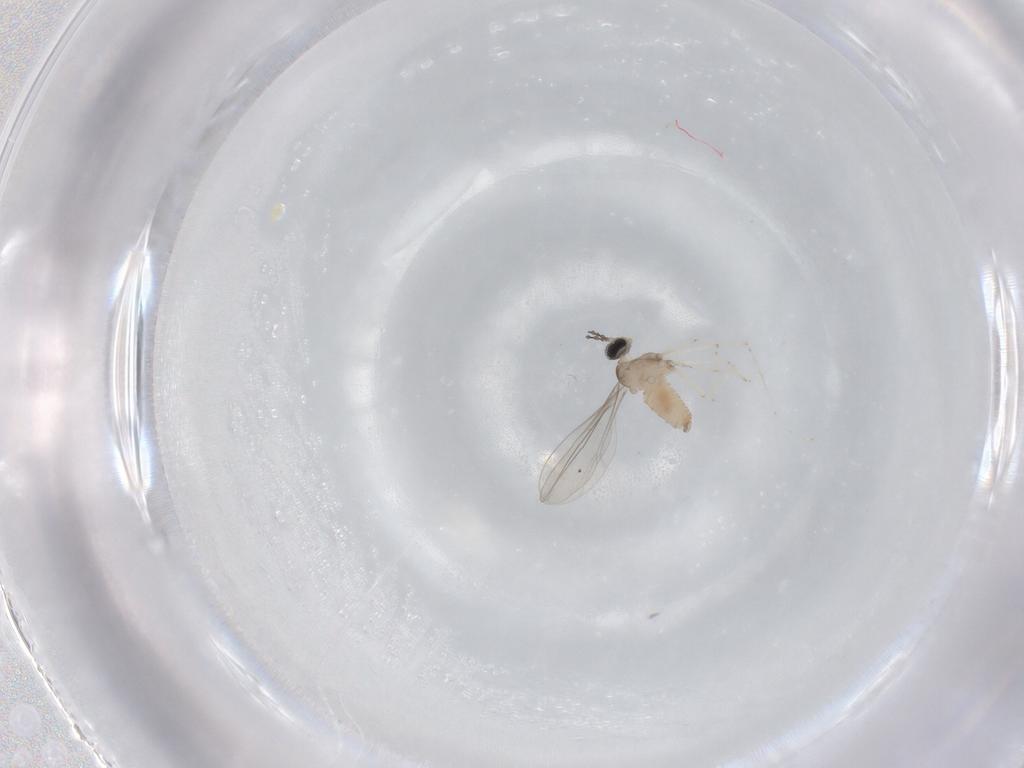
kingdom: Animalia
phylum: Arthropoda
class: Insecta
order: Diptera
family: Cecidomyiidae
